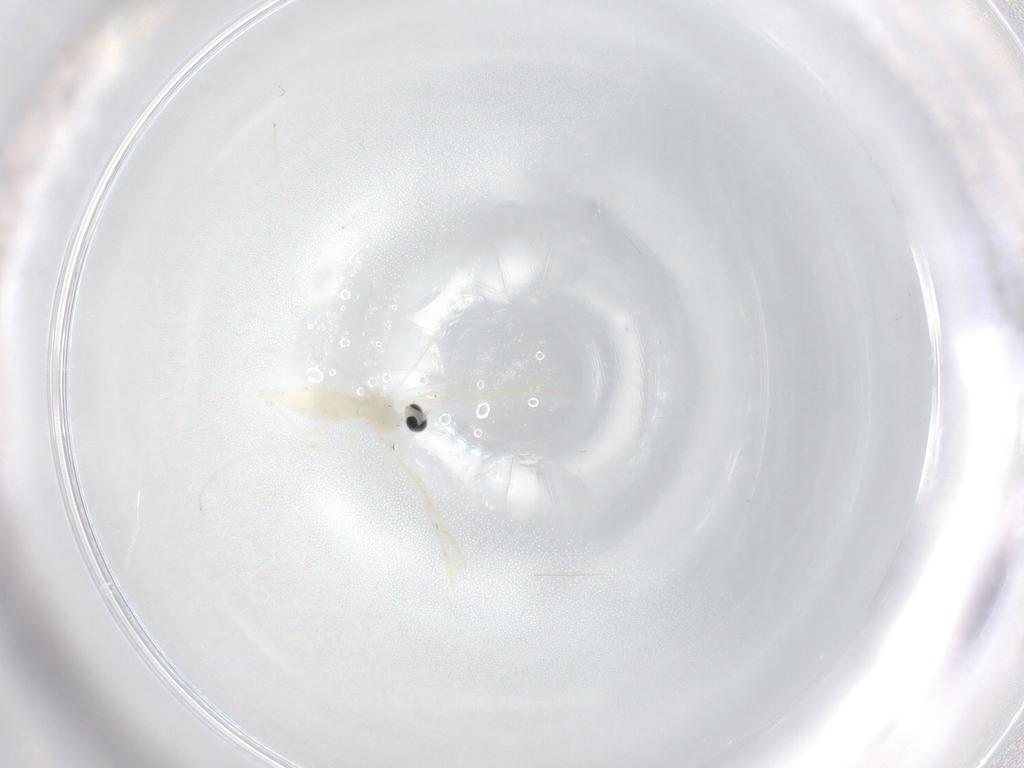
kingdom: Animalia
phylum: Arthropoda
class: Insecta
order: Diptera
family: Cecidomyiidae
